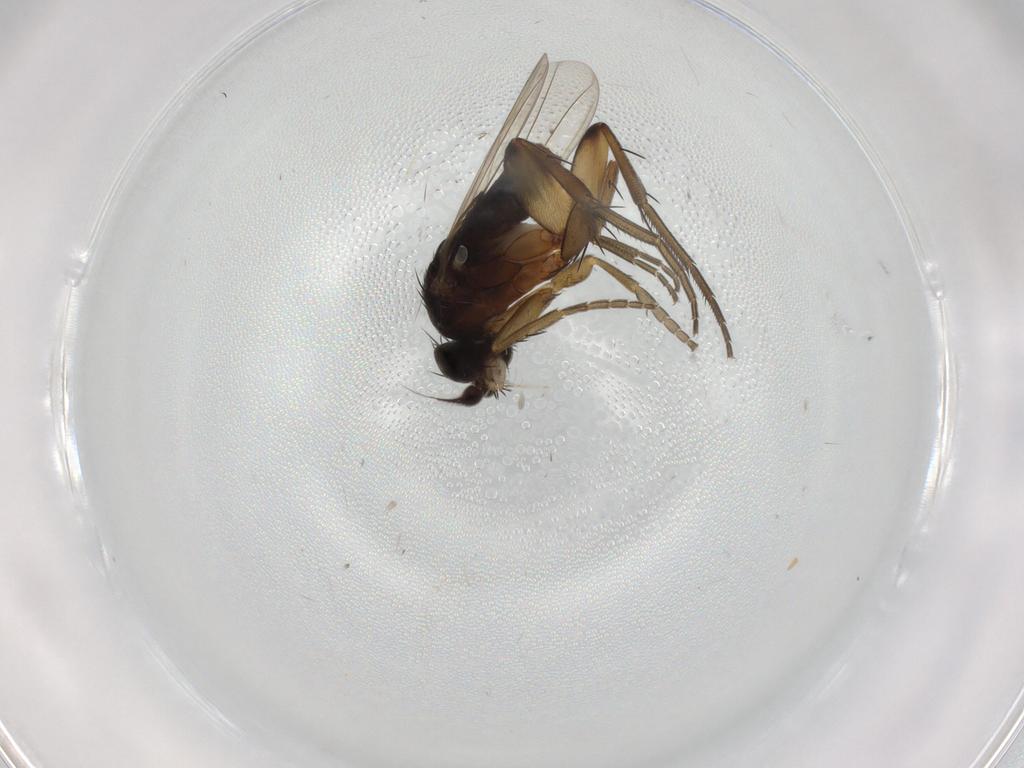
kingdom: Animalia
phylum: Arthropoda
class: Insecta
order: Diptera
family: Phoridae
